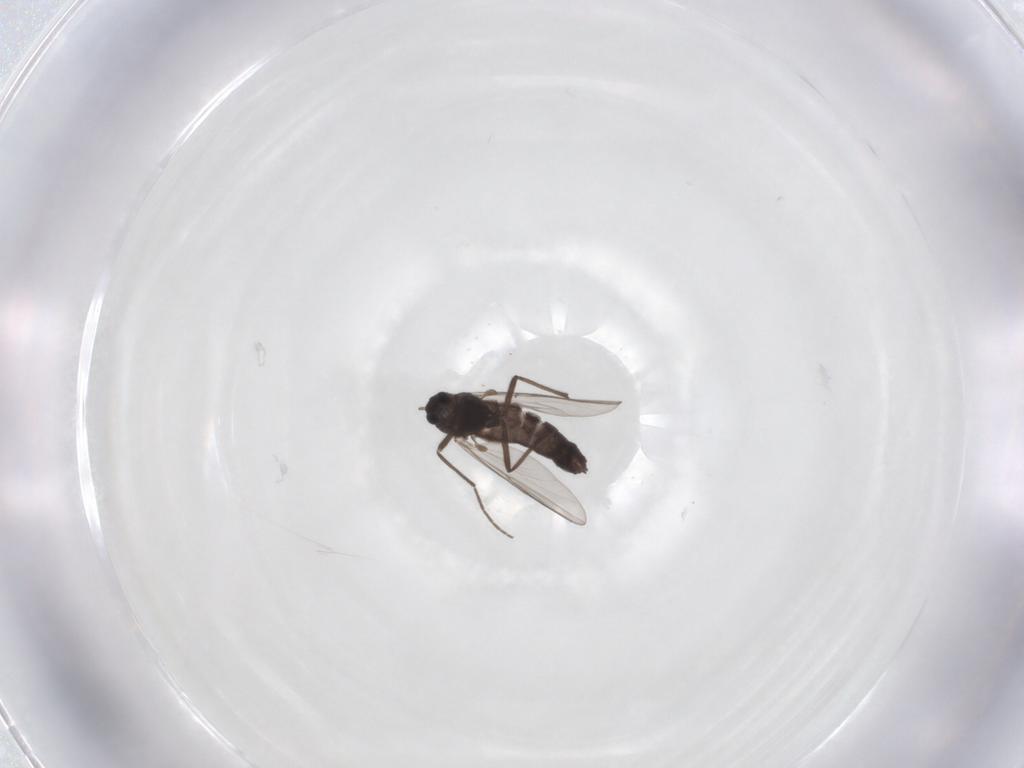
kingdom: Animalia
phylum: Arthropoda
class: Insecta
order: Diptera
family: Chironomidae
